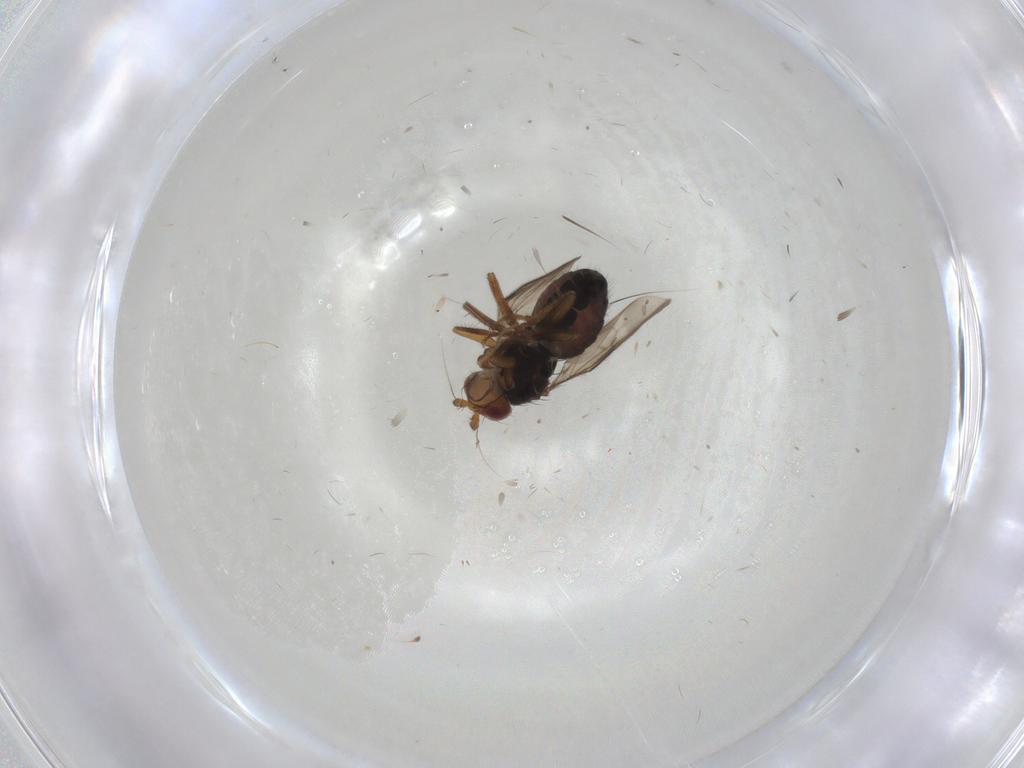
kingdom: Animalia
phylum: Arthropoda
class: Insecta
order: Diptera
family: Sphaeroceridae
